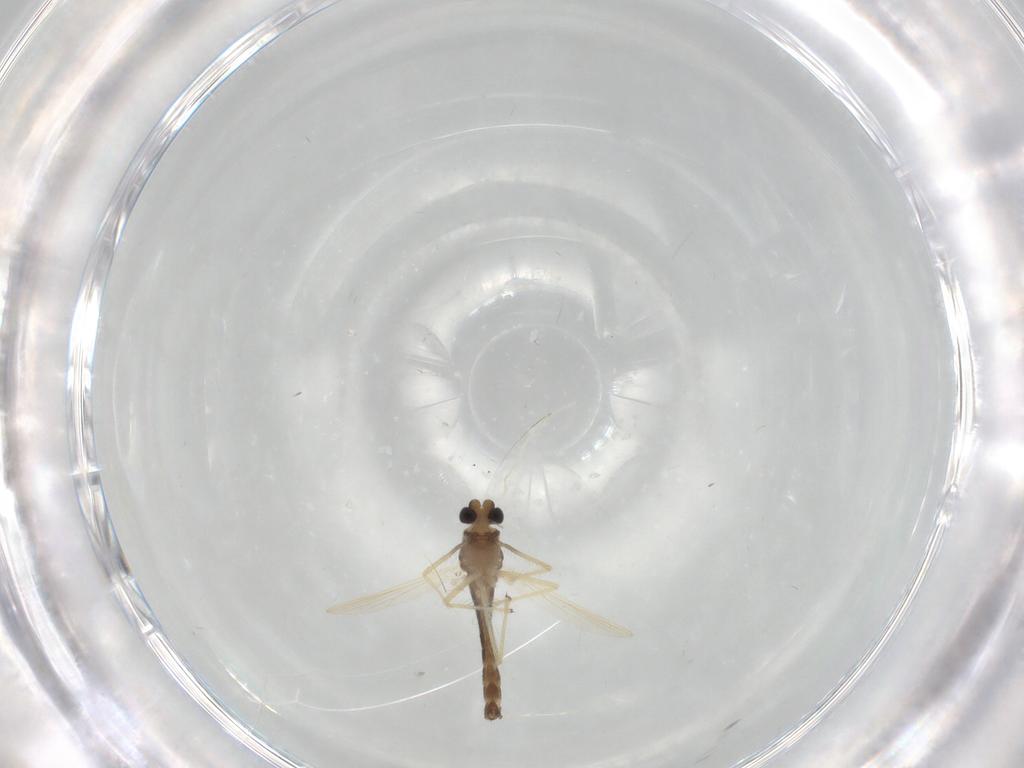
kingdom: Animalia
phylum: Arthropoda
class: Insecta
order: Diptera
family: Chironomidae
